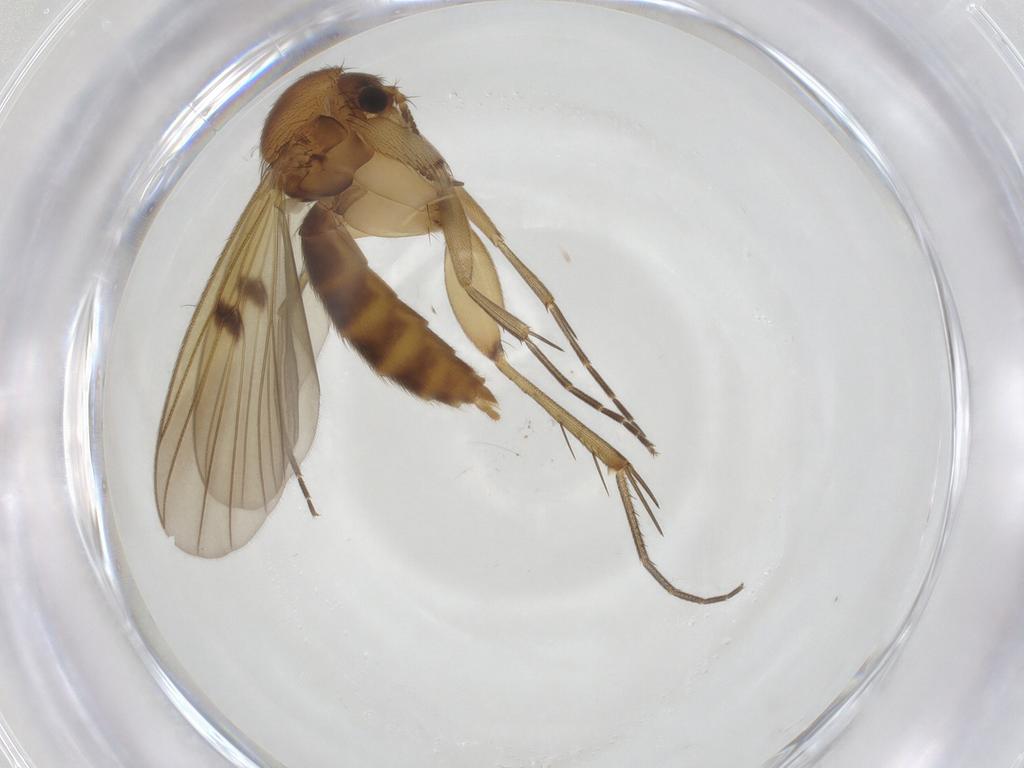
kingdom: Animalia
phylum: Arthropoda
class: Insecta
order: Diptera
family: Mycetophilidae
